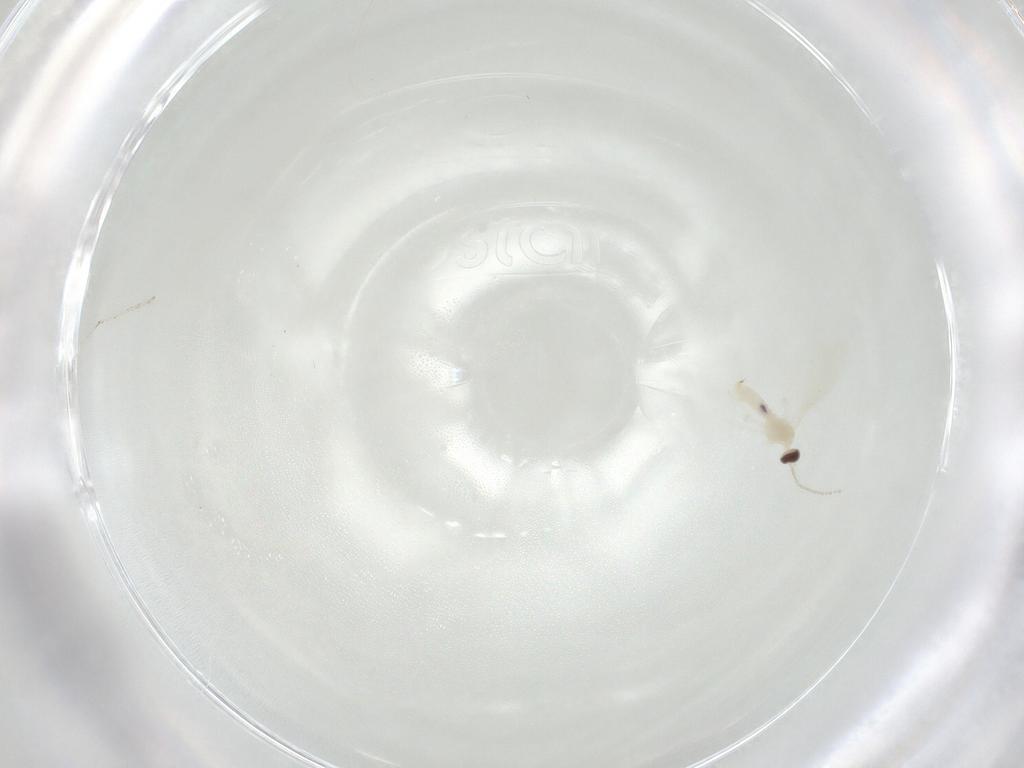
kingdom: Animalia
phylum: Arthropoda
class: Insecta
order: Diptera
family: Cecidomyiidae
